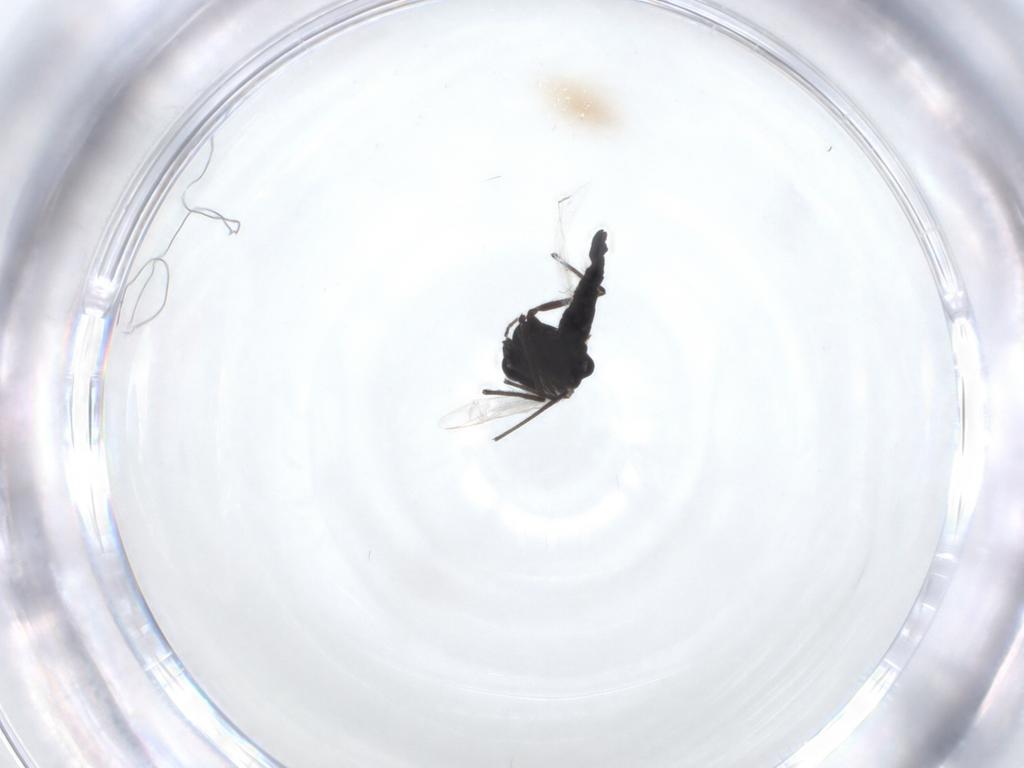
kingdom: Animalia
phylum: Arthropoda
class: Insecta
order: Diptera
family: Chironomidae
